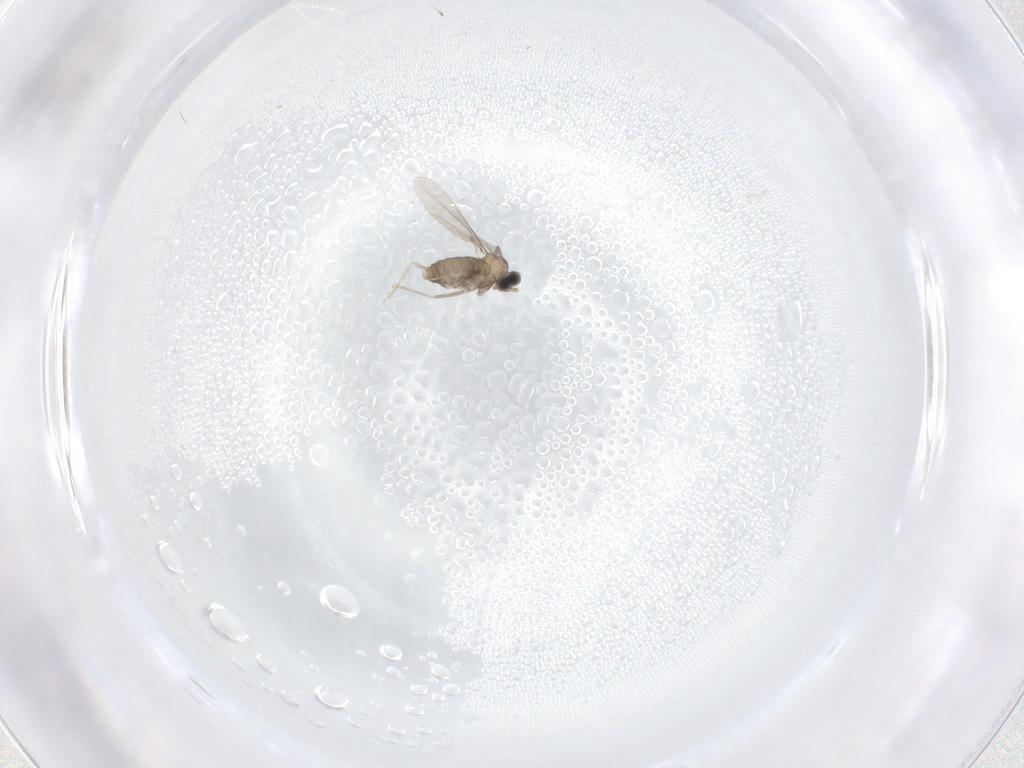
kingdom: Animalia
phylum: Arthropoda
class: Insecta
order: Diptera
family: Cecidomyiidae
